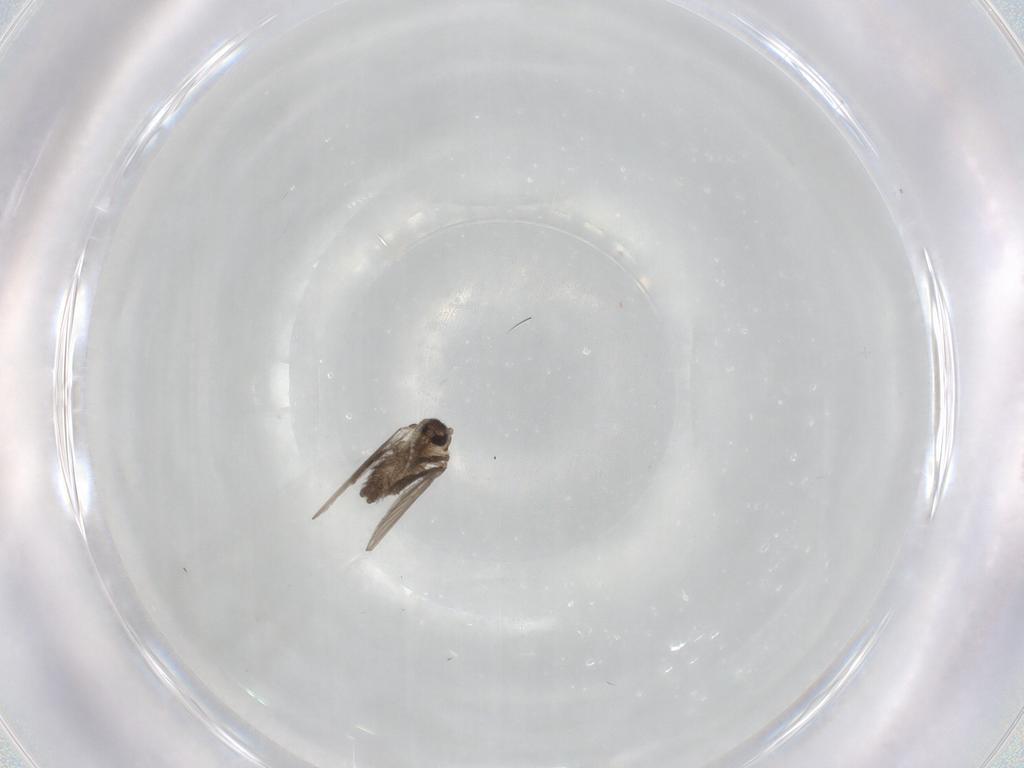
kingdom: Animalia
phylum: Arthropoda
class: Insecta
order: Diptera
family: Psychodidae
